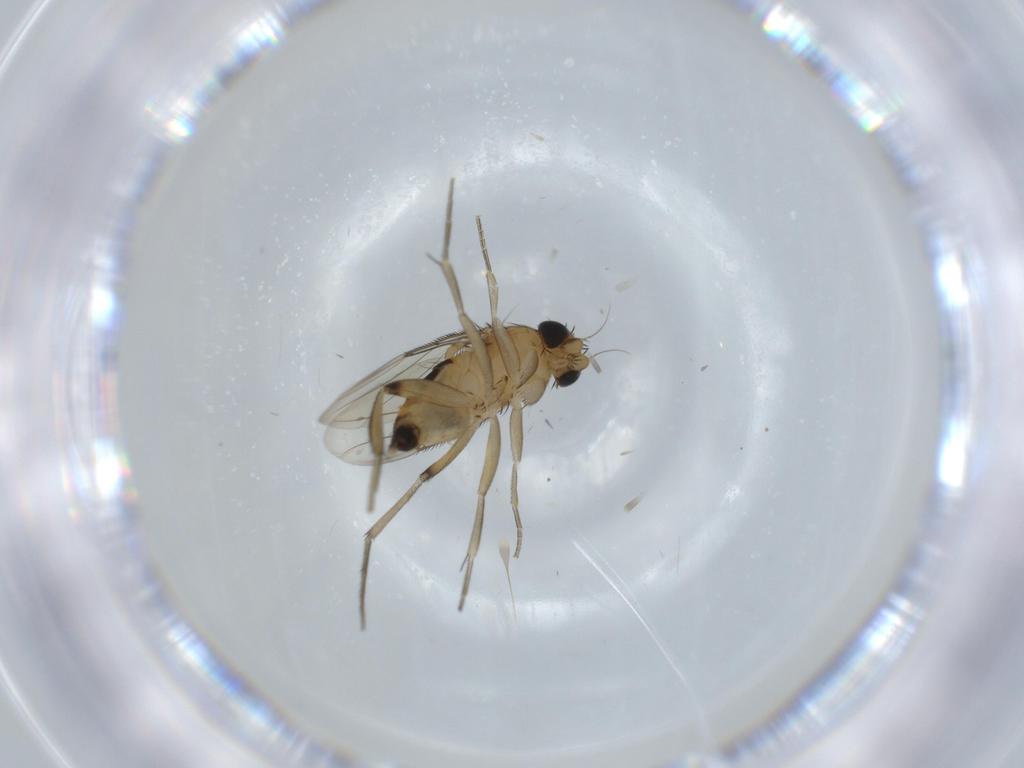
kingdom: Animalia
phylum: Arthropoda
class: Insecta
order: Diptera
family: Phoridae
